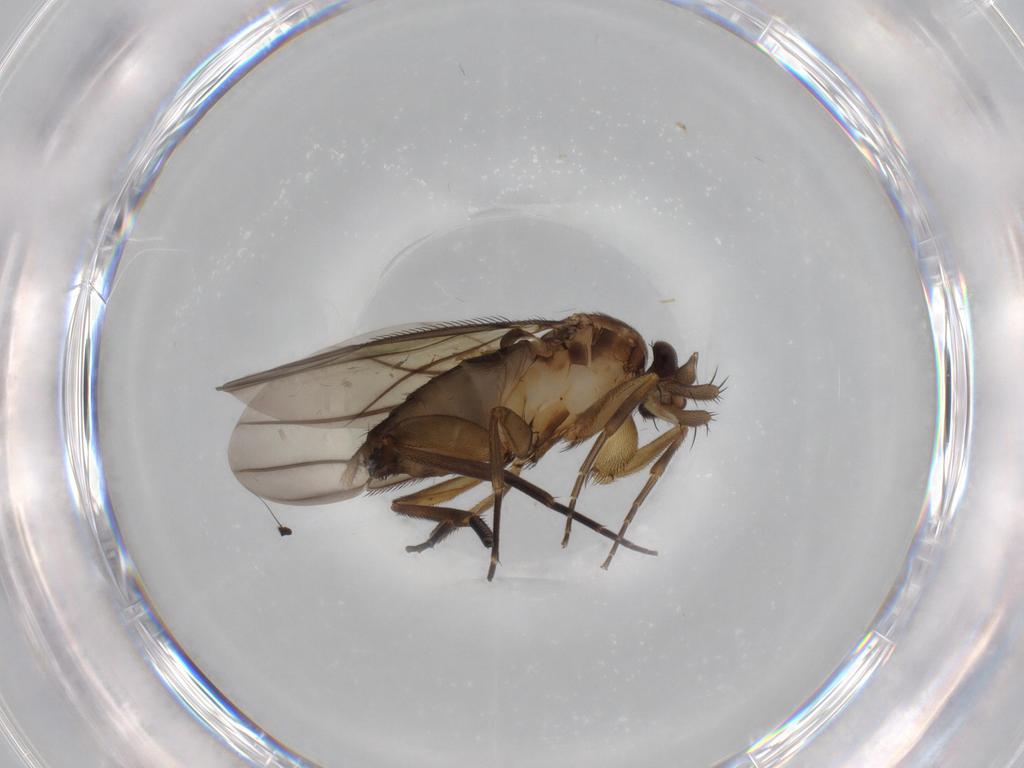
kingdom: Animalia
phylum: Arthropoda
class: Insecta
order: Diptera
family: Phoridae
